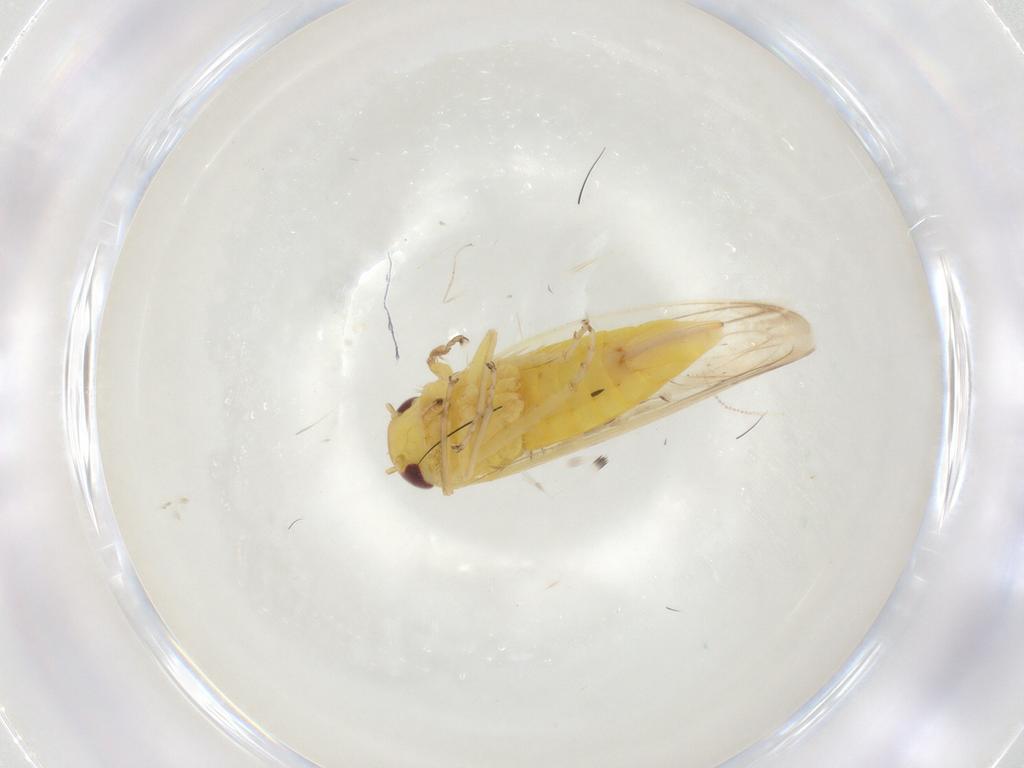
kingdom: Animalia
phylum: Arthropoda
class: Insecta
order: Hemiptera
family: Cicadellidae
